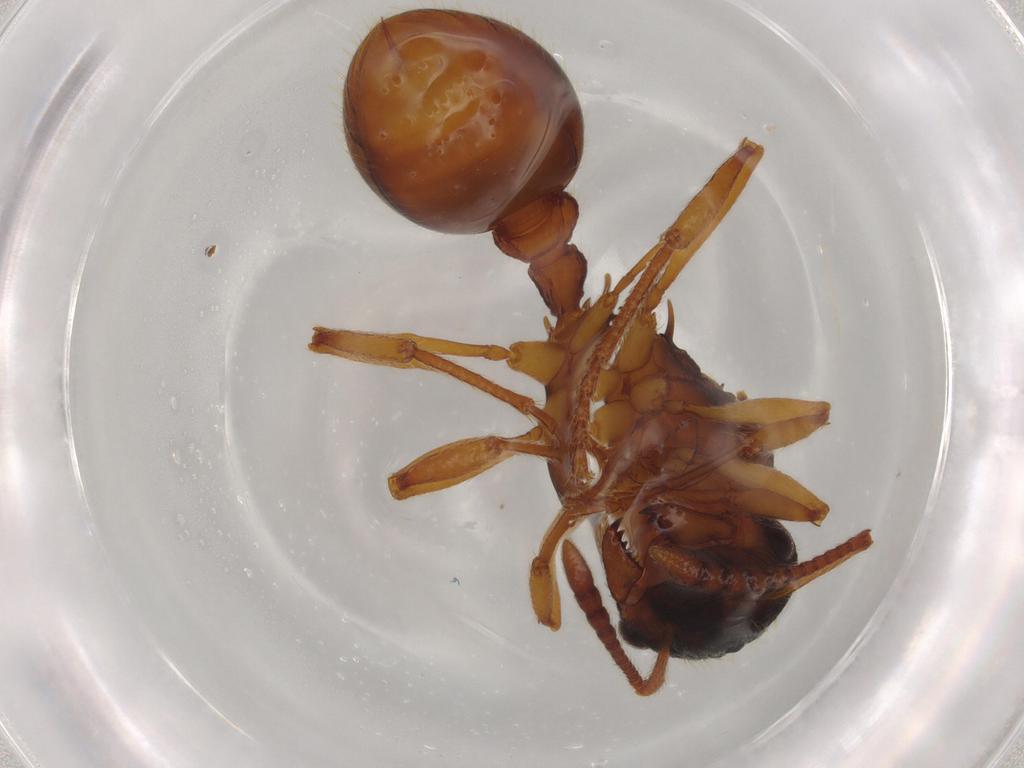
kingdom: Animalia
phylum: Arthropoda
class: Insecta
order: Hymenoptera
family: Formicidae
